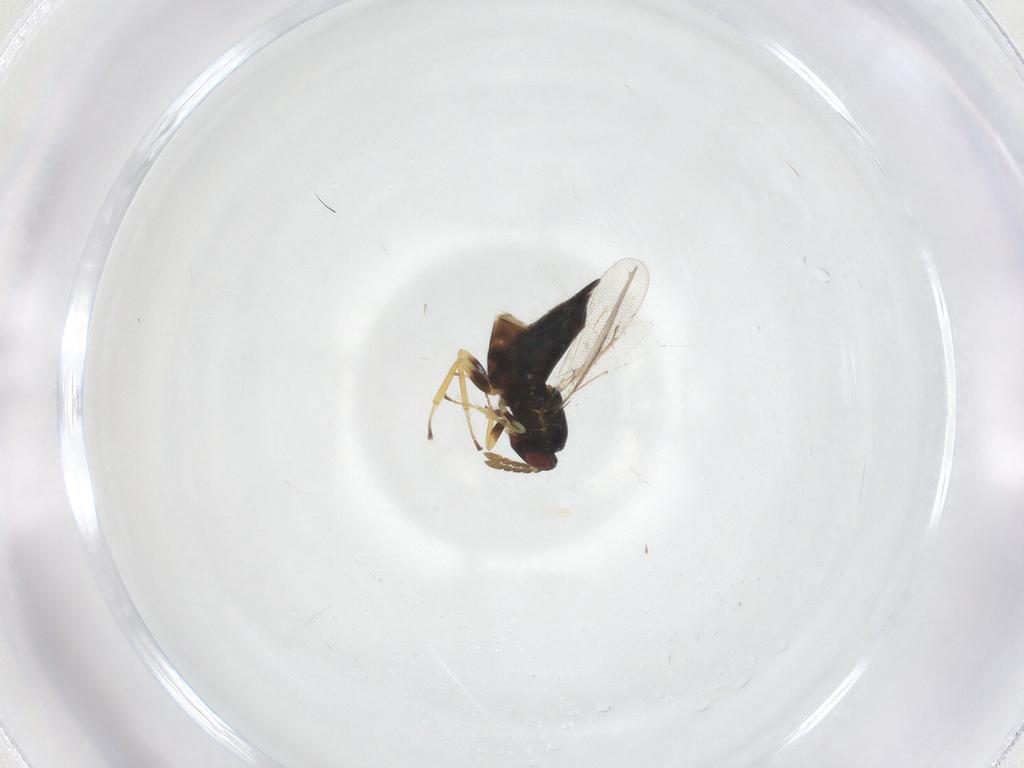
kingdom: Animalia
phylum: Arthropoda
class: Insecta
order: Hymenoptera
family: Eulophidae
